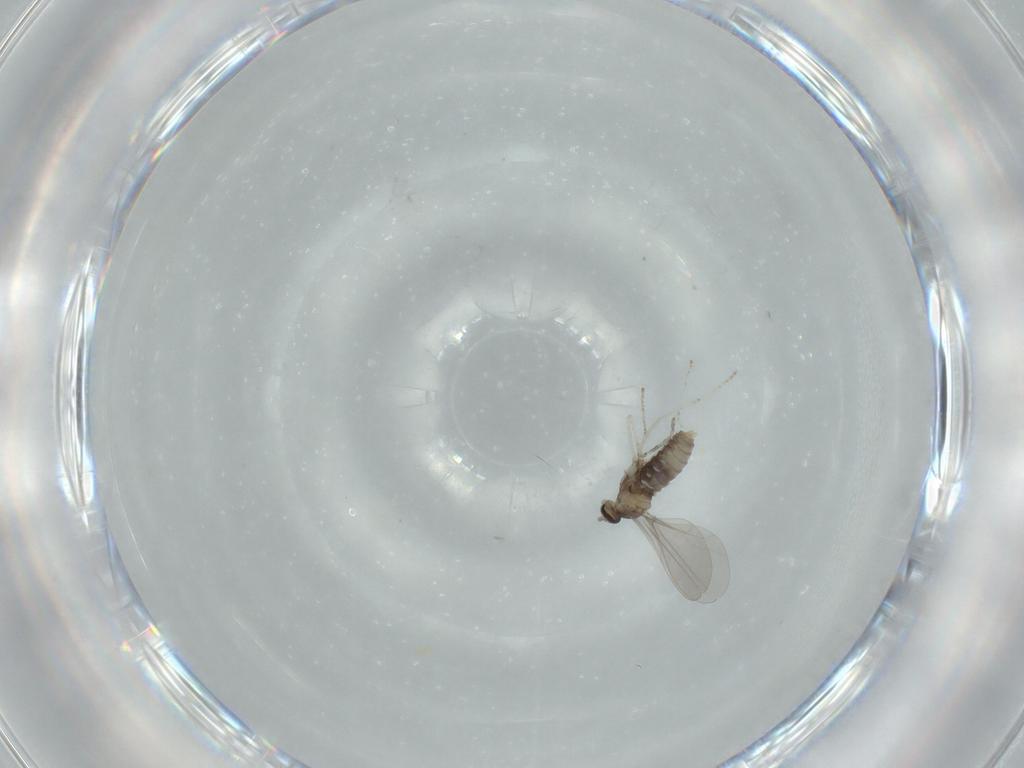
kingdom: Animalia
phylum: Arthropoda
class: Insecta
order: Diptera
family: Cecidomyiidae
